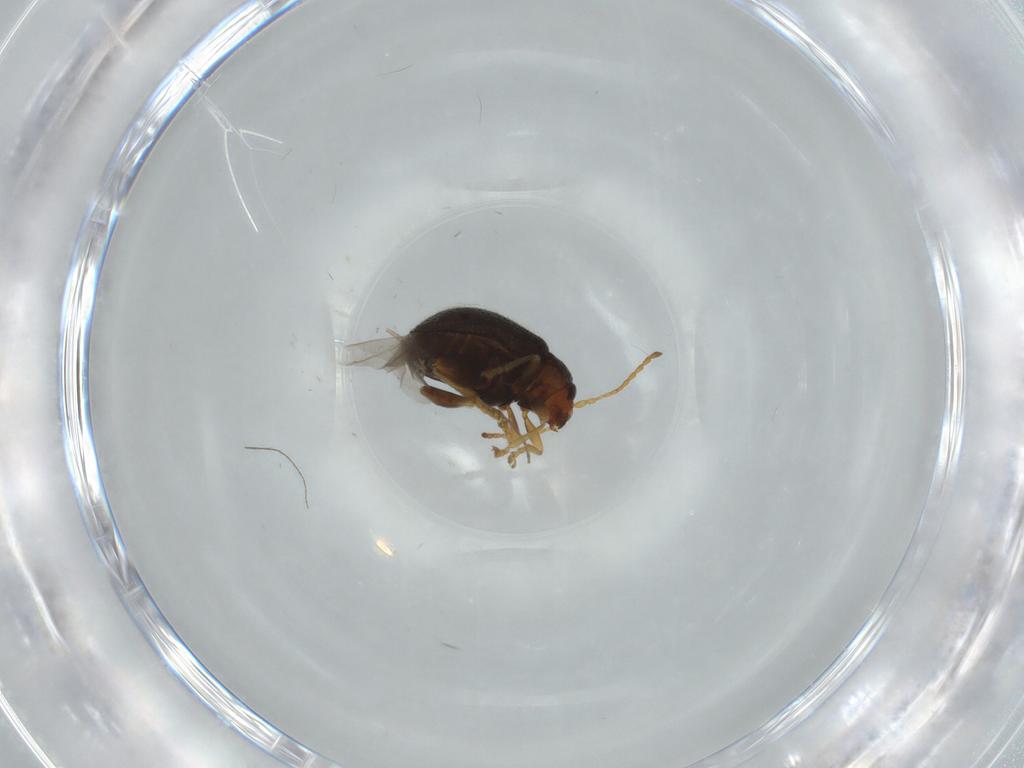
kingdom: Animalia
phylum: Arthropoda
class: Insecta
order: Coleoptera
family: Chrysomelidae
